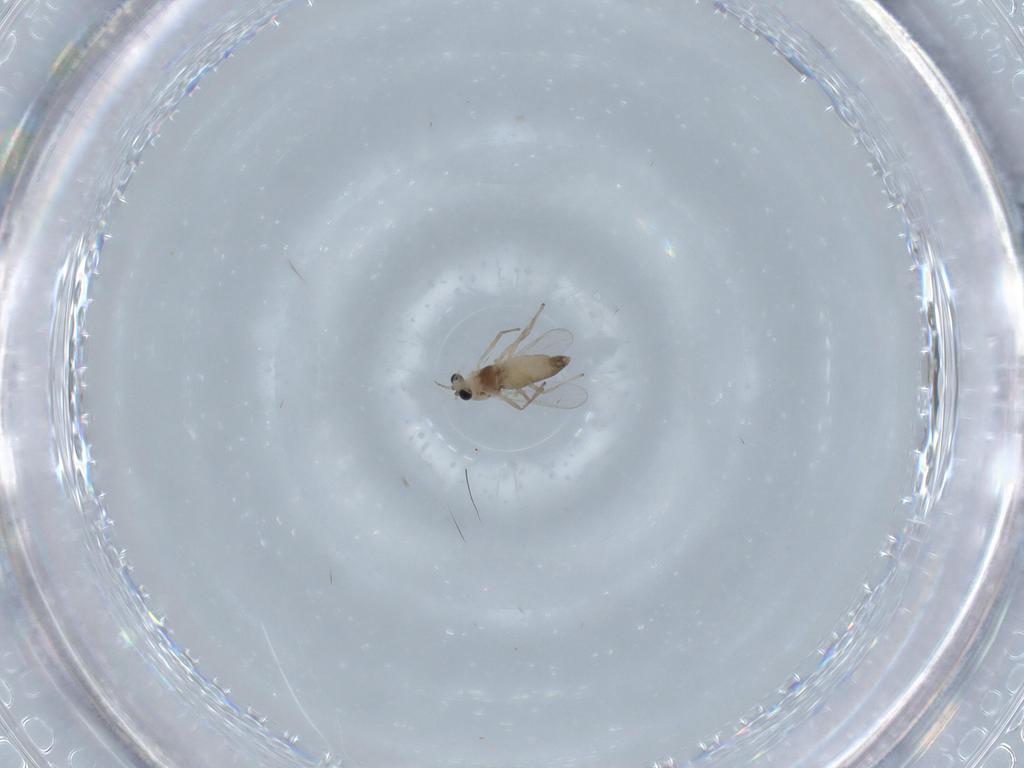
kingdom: Animalia
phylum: Arthropoda
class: Insecta
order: Diptera
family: Cecidomyiidae
